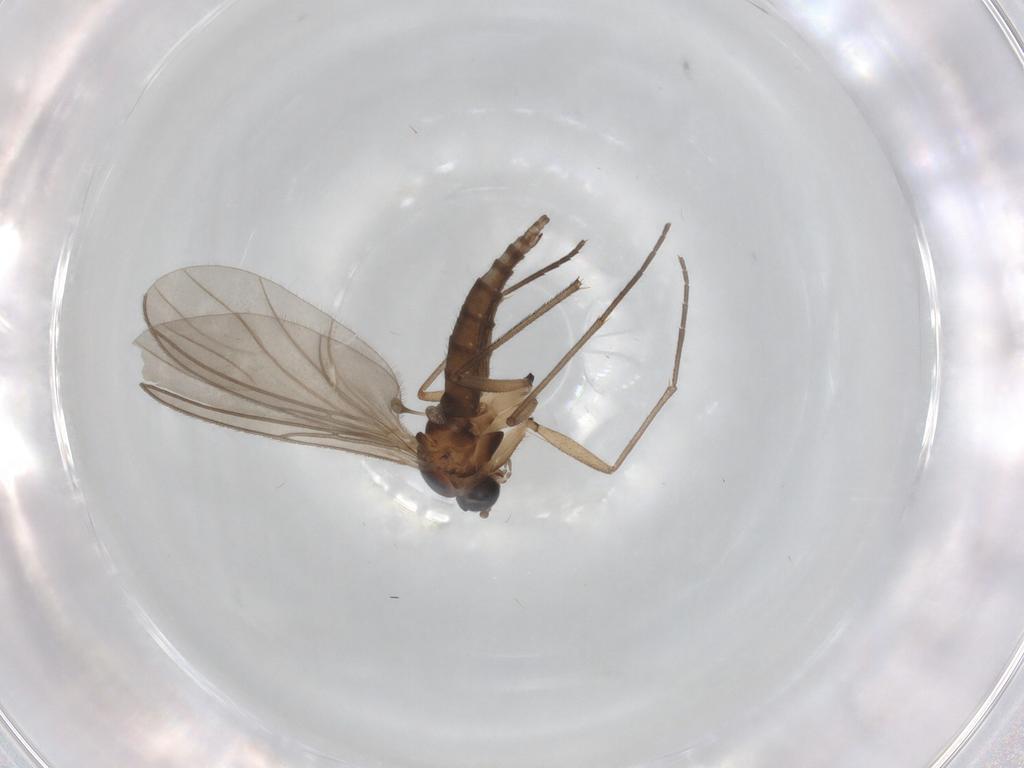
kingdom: Animalia
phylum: Arthropoda
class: Insecta
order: Diptera
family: Sciaridae
